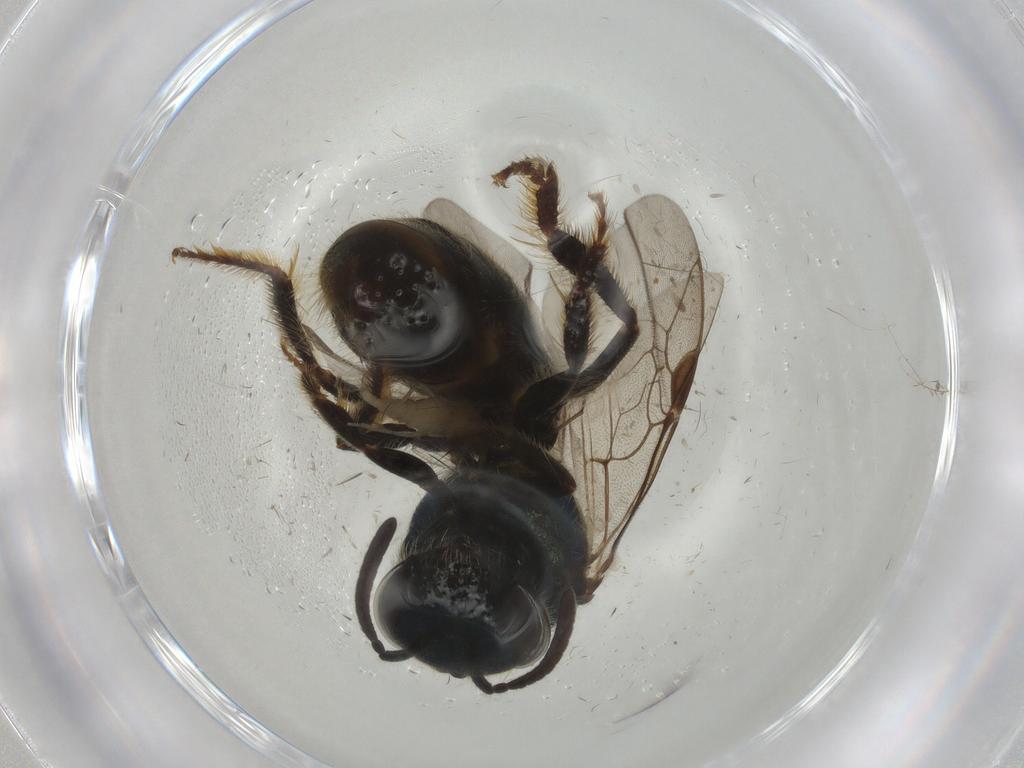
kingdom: Animalia
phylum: Arthropoda
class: Insecta
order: Hymenoptera
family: Halictidae
